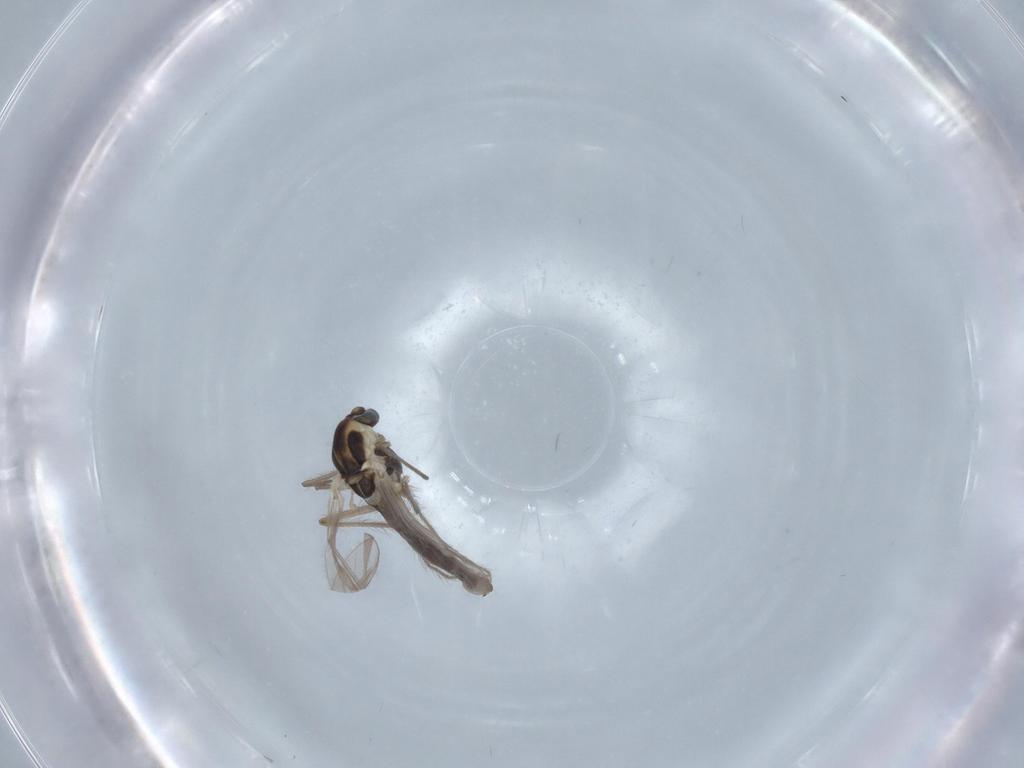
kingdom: Animalia
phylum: Arthropoda
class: Insecta
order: Diptera
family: Chironomidae
